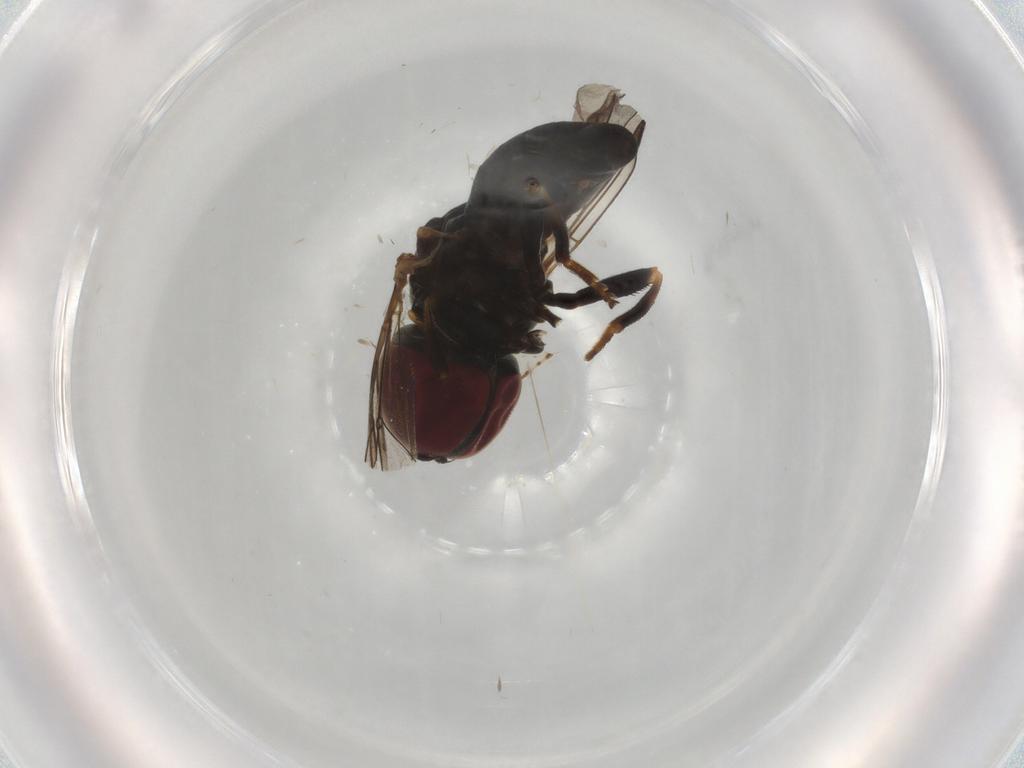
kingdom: Animalia
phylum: Arthropoda
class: Insecta
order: Diptera
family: Pipunculidae
